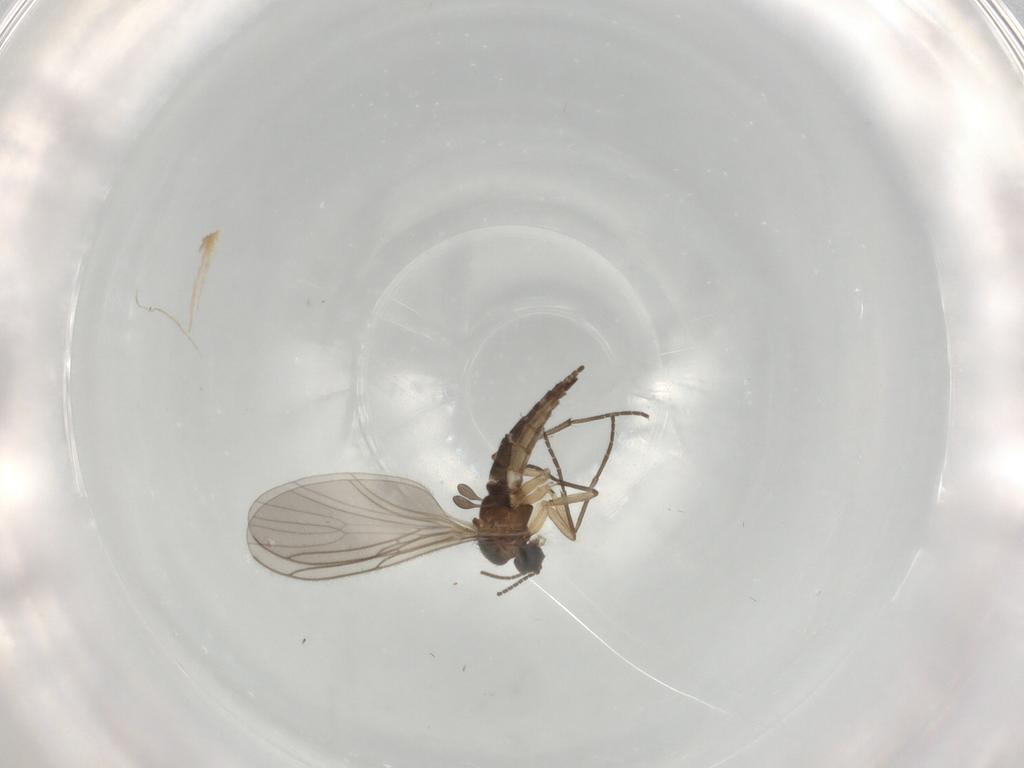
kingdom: Animalia
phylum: Arthropoda
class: Insecta
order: Diptera
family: Sciaridae
